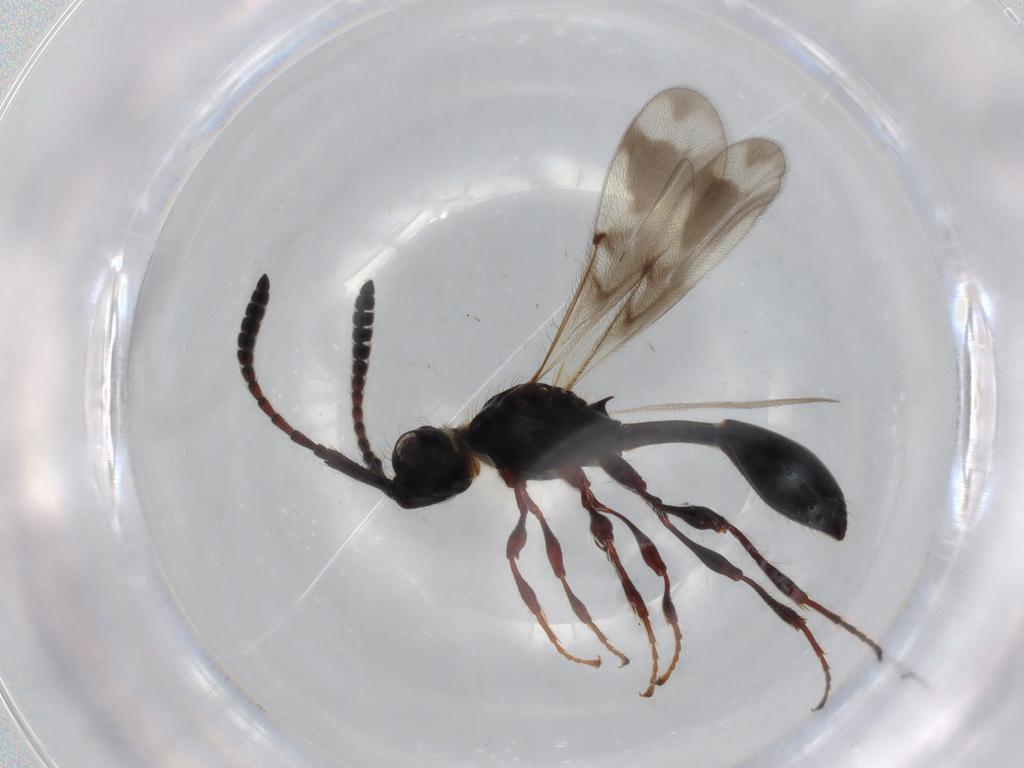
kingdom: Animalia
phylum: Arthropoda
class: Insecta
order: Hymenoptera
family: Diapriidae
